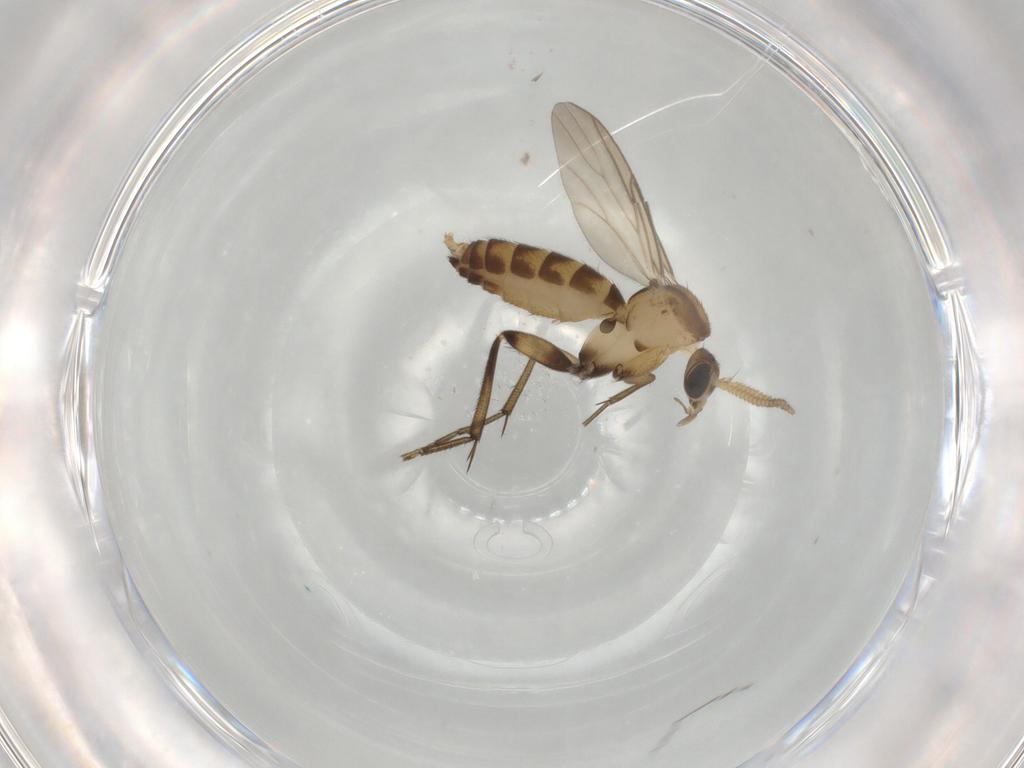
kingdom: Animalia
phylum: Arthropoda
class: Insecta
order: Diptera
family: Mycetophilidae
